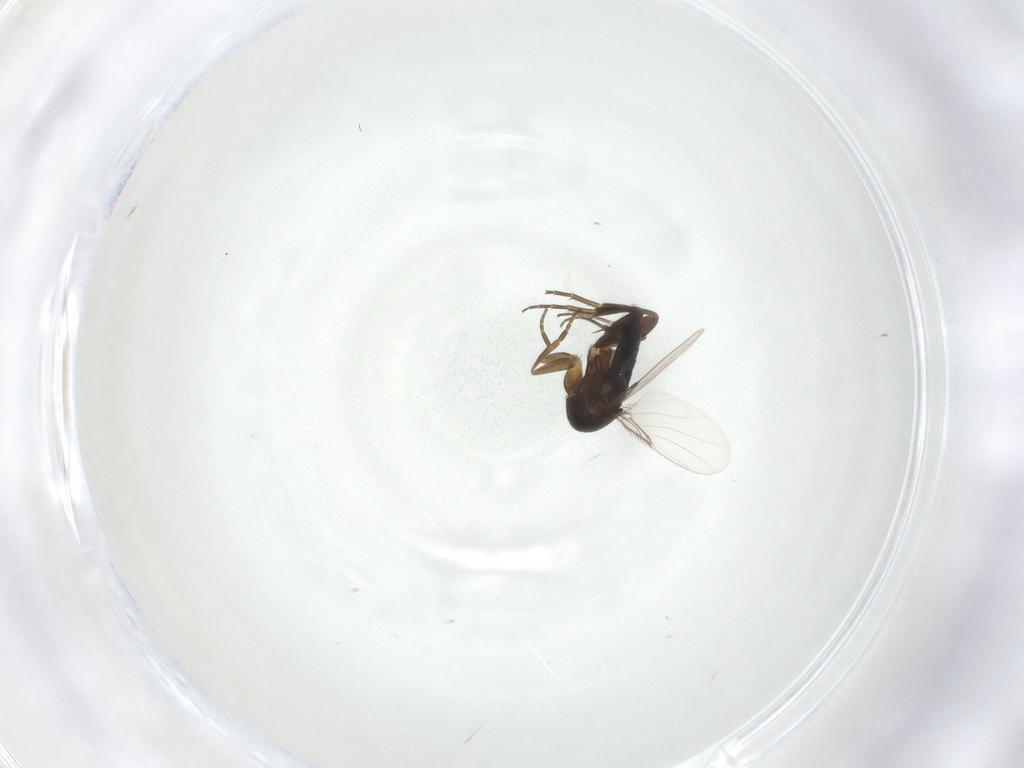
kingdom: Animalia
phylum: Arthropoda
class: Insecta
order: Diptera
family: Phoridae
